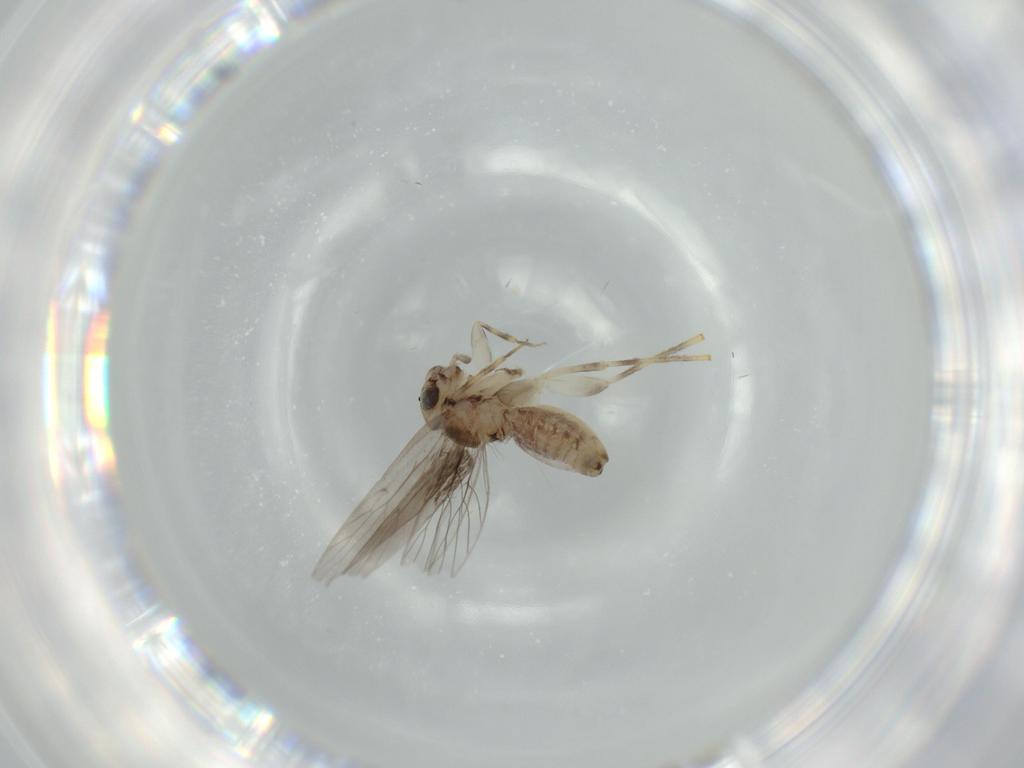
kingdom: Animalia
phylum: Arthropoda
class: Insecta
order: Psocodea
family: Lepidopsocidae
